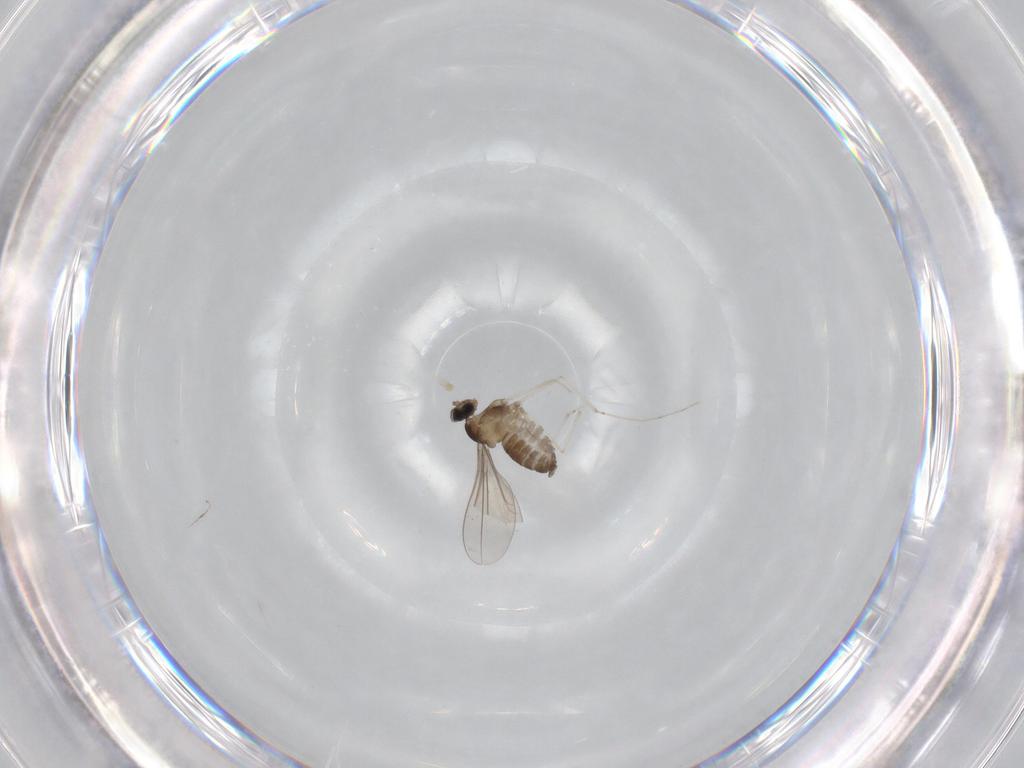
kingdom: Animalia
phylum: Arthropoda
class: Insecta
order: Diptera
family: Cecidomyiidae
